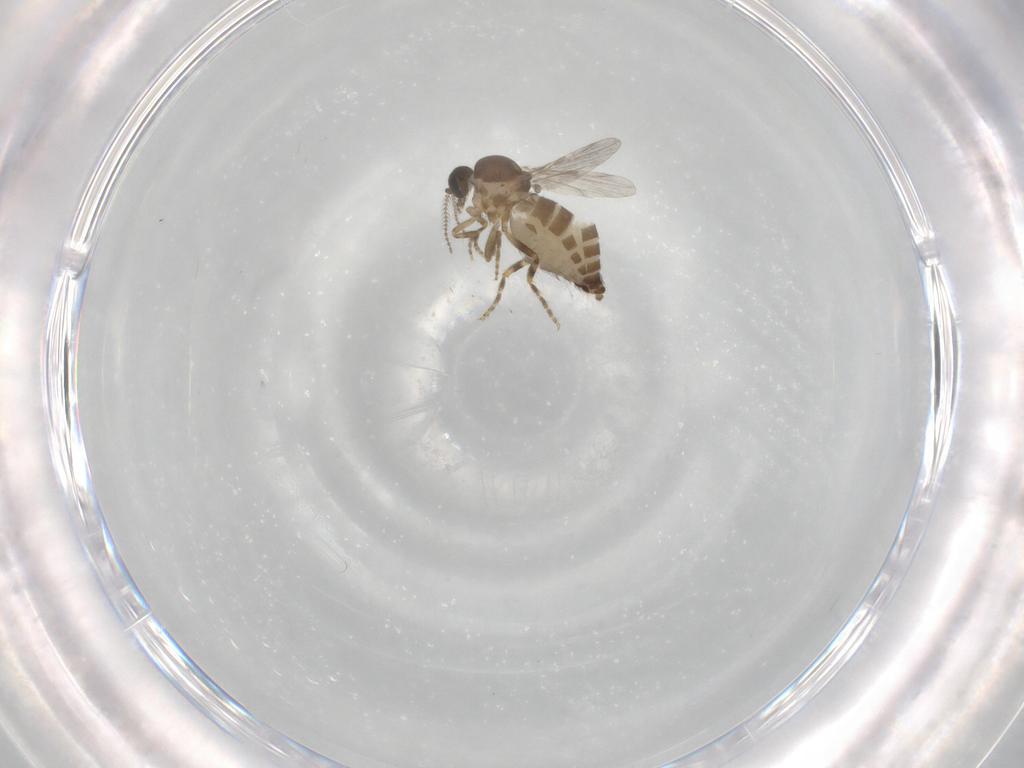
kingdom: Animalia
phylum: Arthropoda
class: Insecta
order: Diptera
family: Ceratopogonidae
